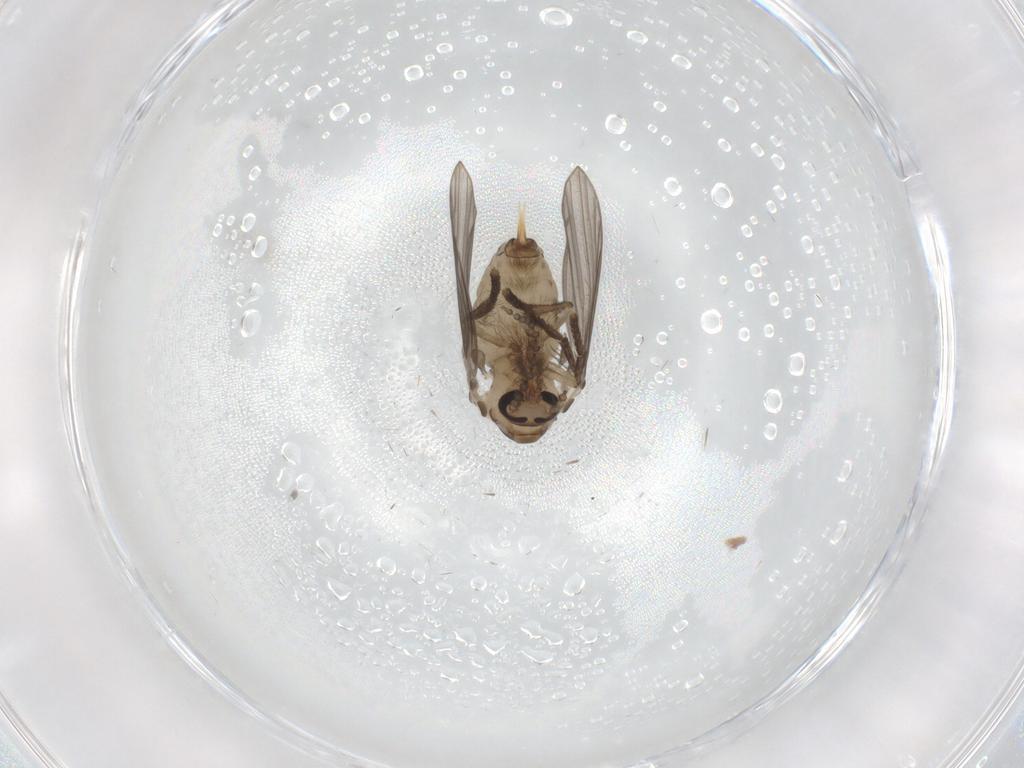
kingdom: Animalia
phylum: Arthropoda
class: Insecta
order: Diptera
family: Psychodidae
